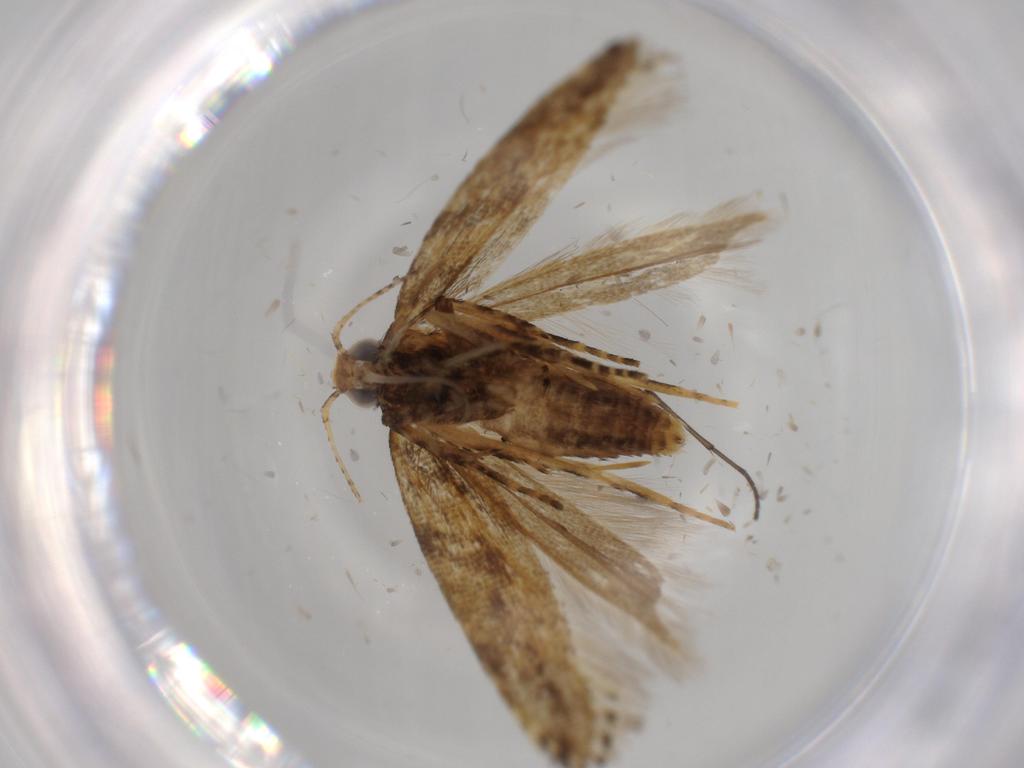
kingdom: Animalia
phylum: Arthropoda
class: Insecta
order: Lepidoptera
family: Gelechiidae
